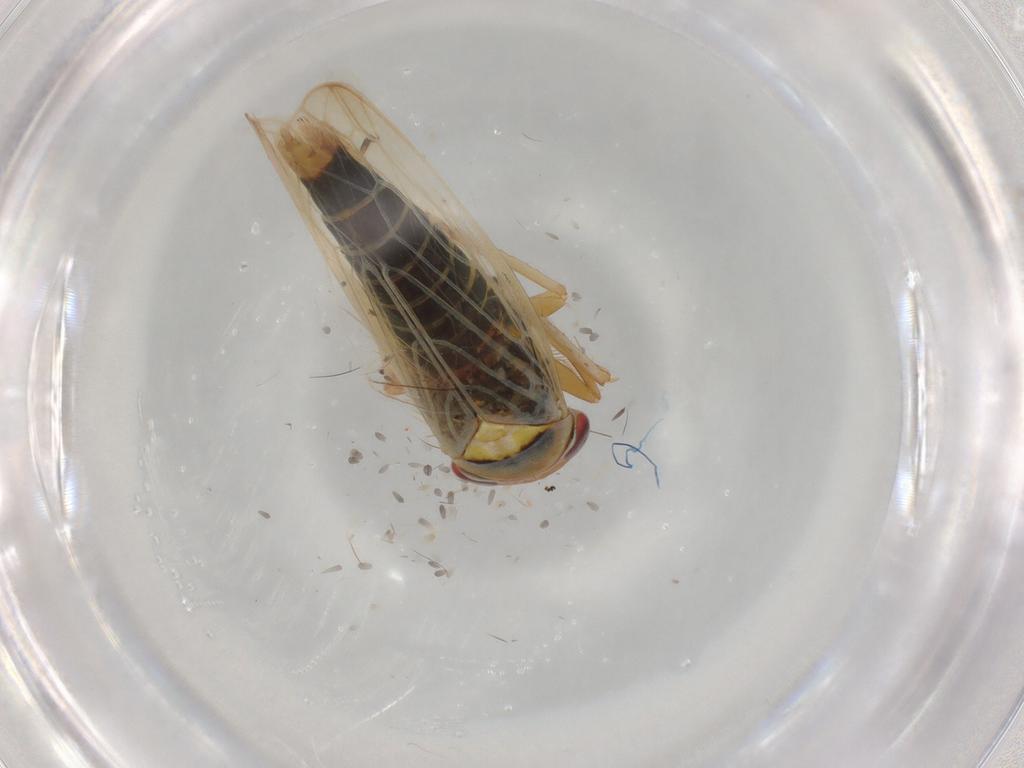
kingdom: Animalia
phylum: Arthropoda
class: Insecta
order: Hemiptera
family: Cicadellidae
